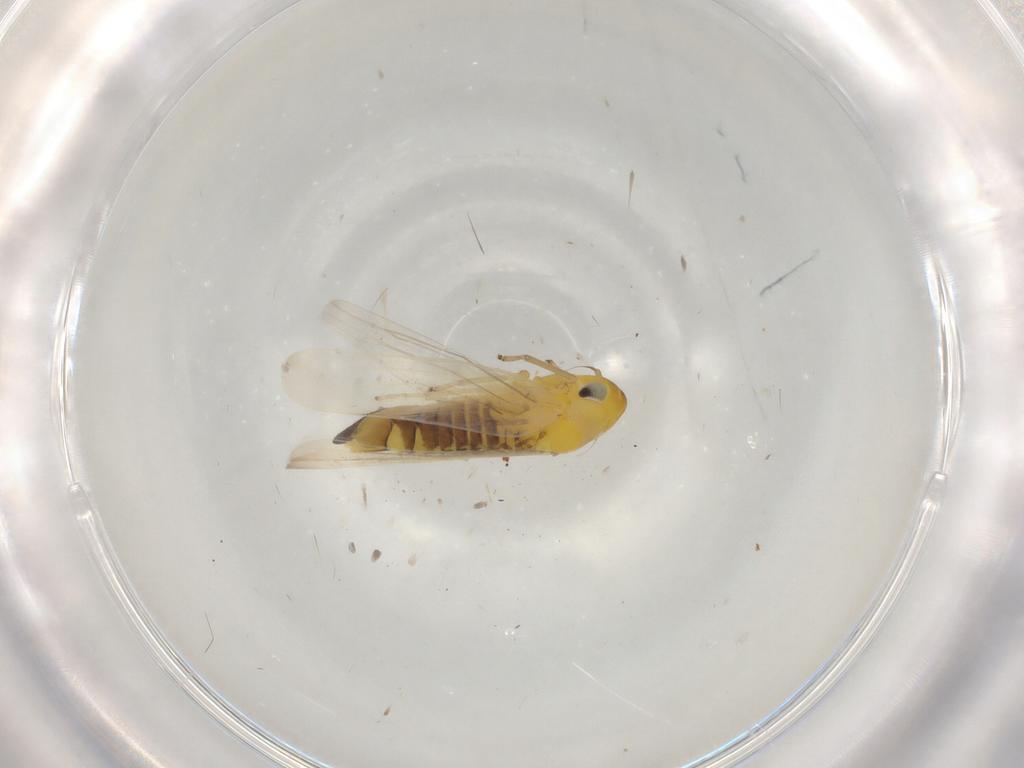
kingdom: Animalia
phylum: Arthropoda
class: Insecta
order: Hemiptera
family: Cicadellidae
